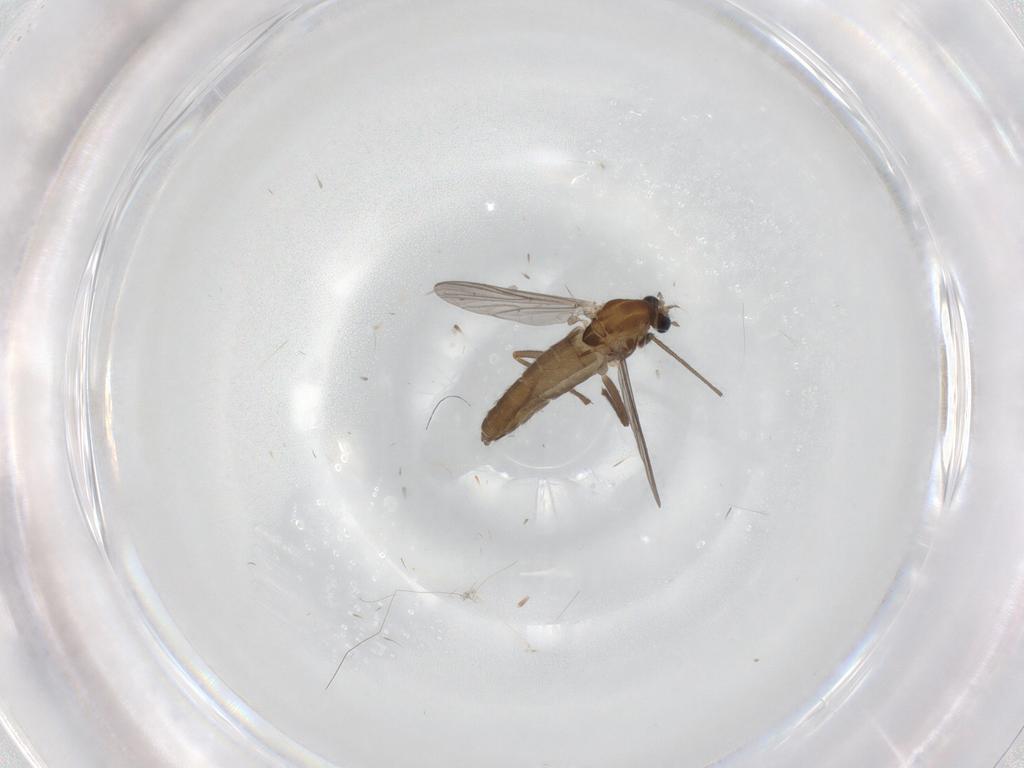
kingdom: Animalia
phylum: Arthropoda
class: Insecta
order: Diptera
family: Chironomidae
